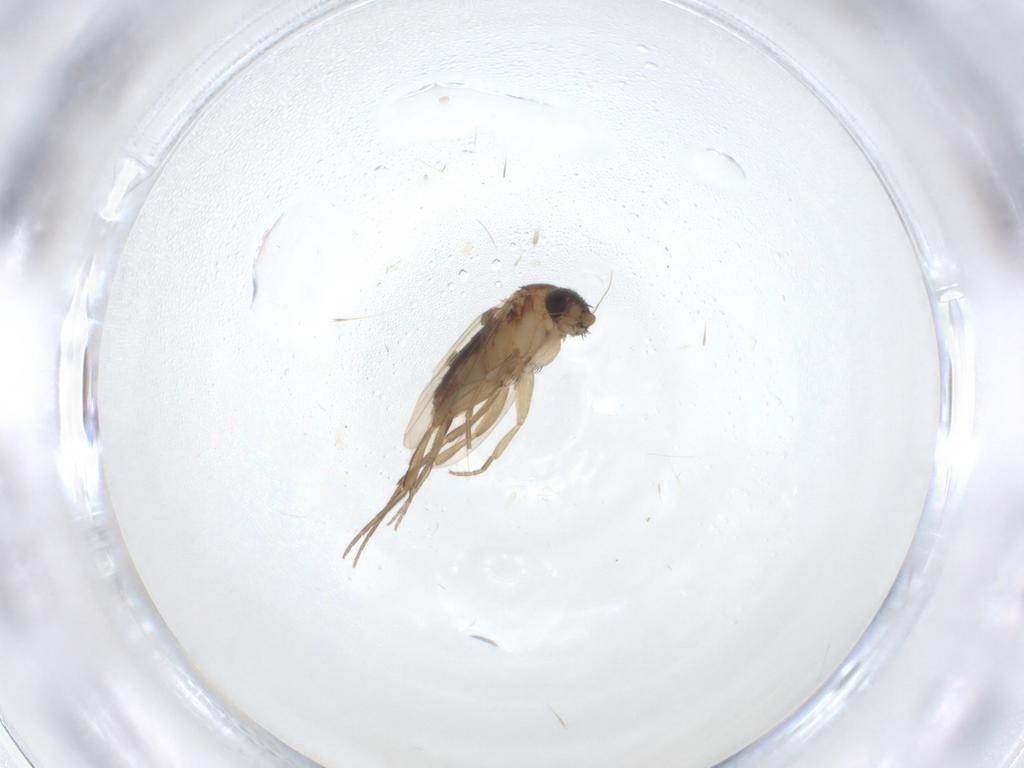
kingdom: Animalia
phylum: Arthropoda
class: Insecta
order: Diptera
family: Phoridae
